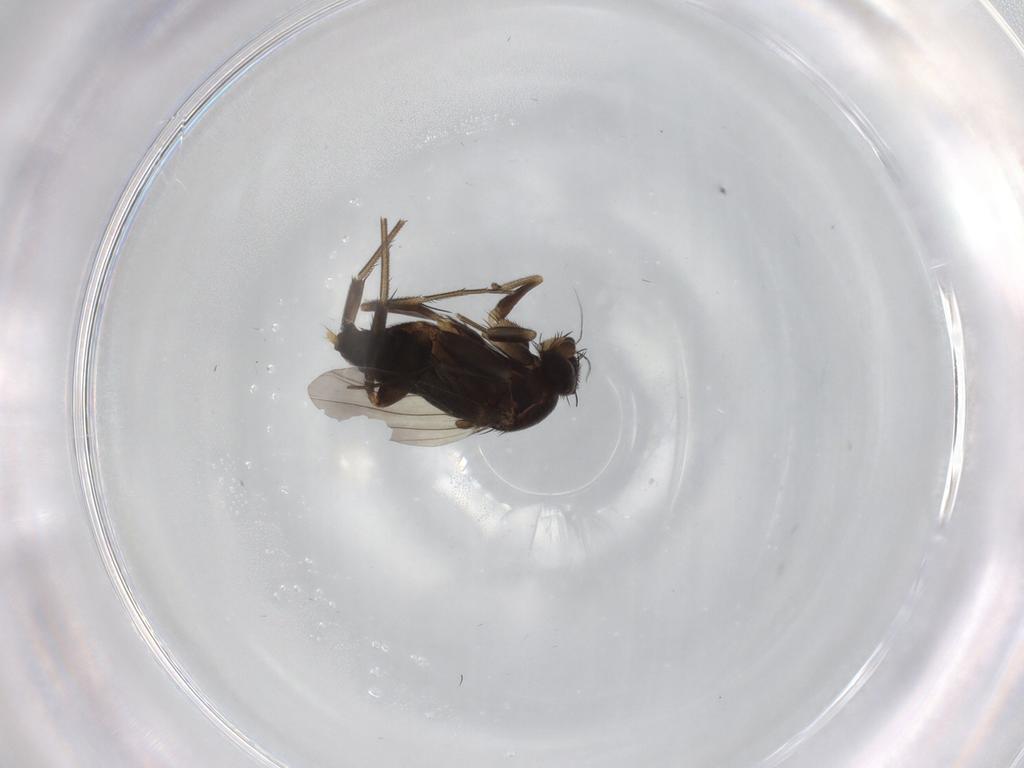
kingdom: Animalia
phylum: Arthropoda
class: Insecta
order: Diptera
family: Phoridae
